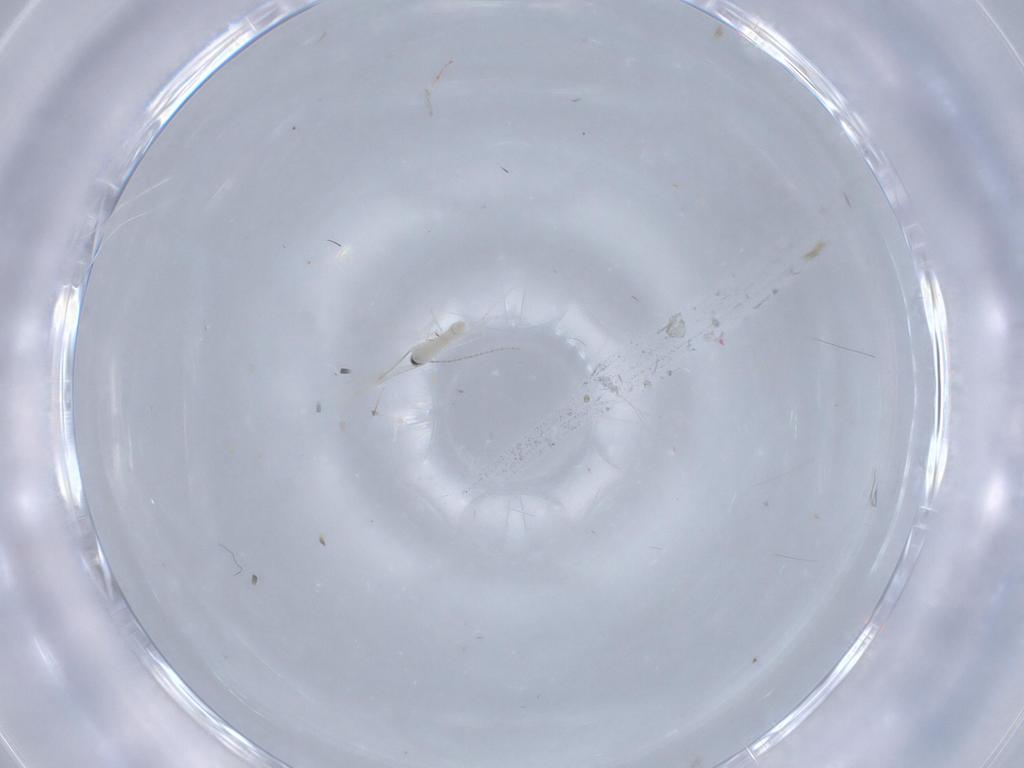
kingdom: Animalia
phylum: Arthropoda
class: Insecta
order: Diptera
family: Cecidomyiidae
